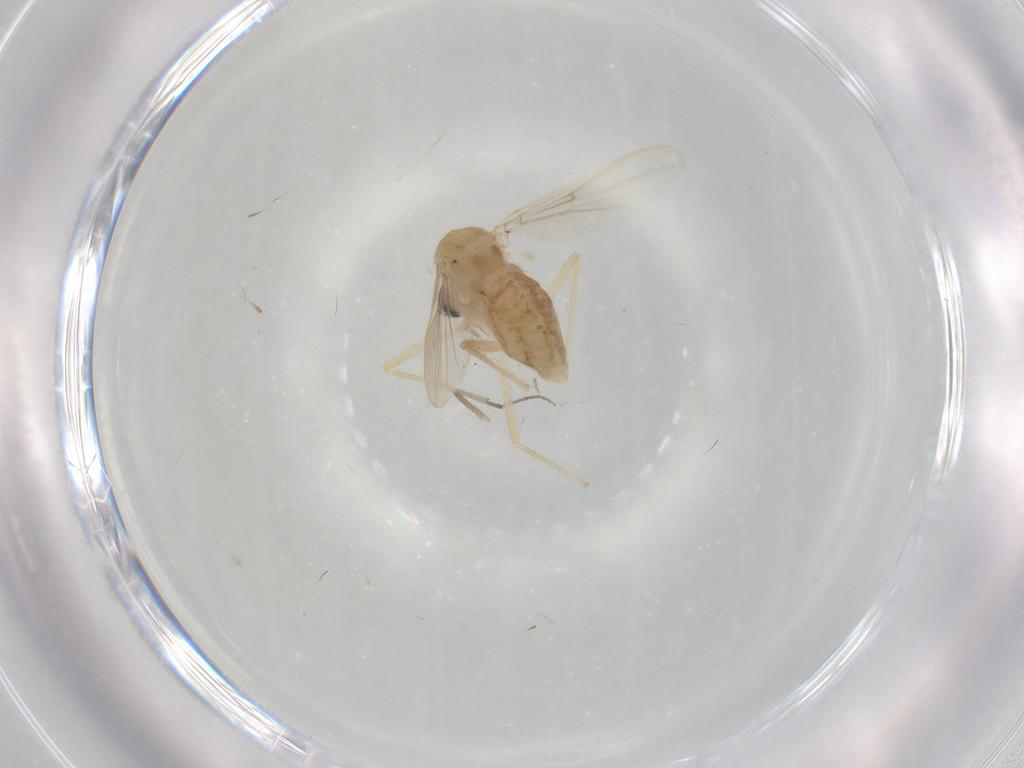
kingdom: Animalia
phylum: Arthropoda
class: Insecta
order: Diptera
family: Chironomidae
